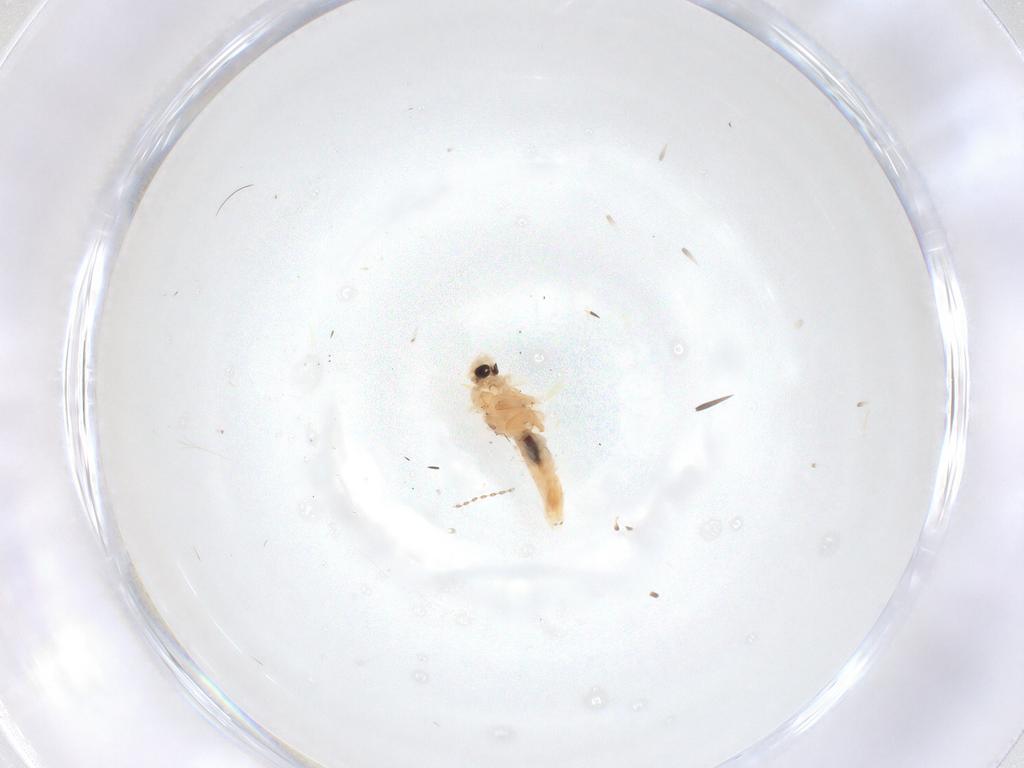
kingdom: Animalia
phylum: Arthropoda
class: Insecta
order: Lepidoptera
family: Heliozelidae
